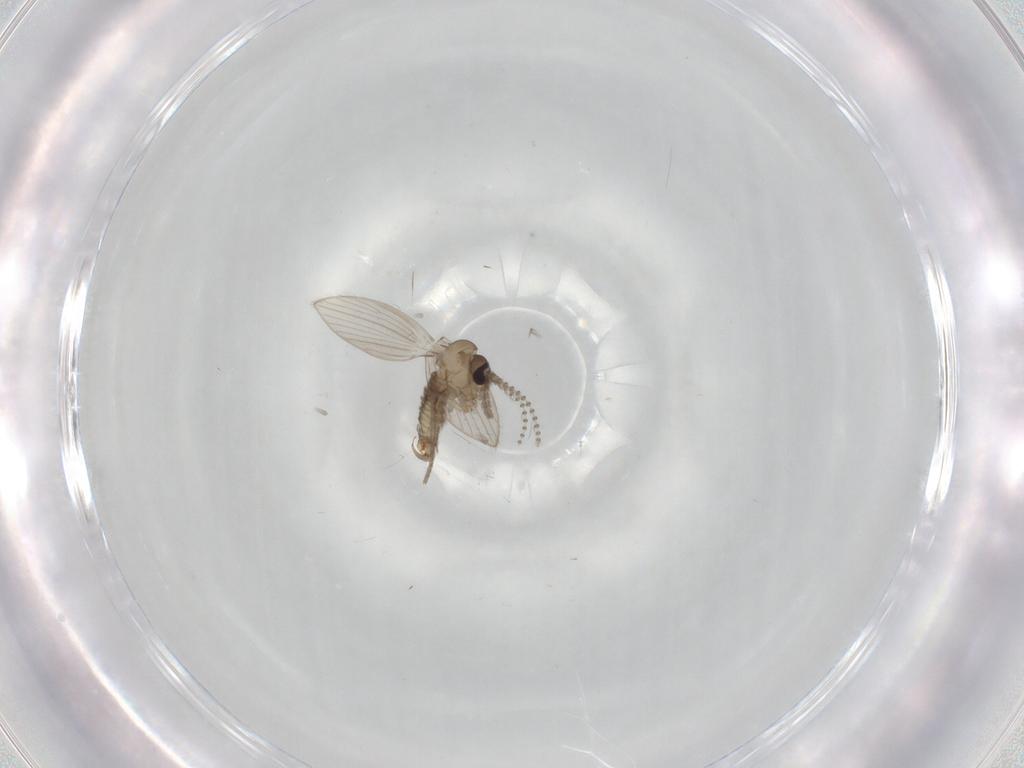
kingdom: Animalia
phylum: Arthropoda
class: Insecta
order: Diptera
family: Psychodidae
